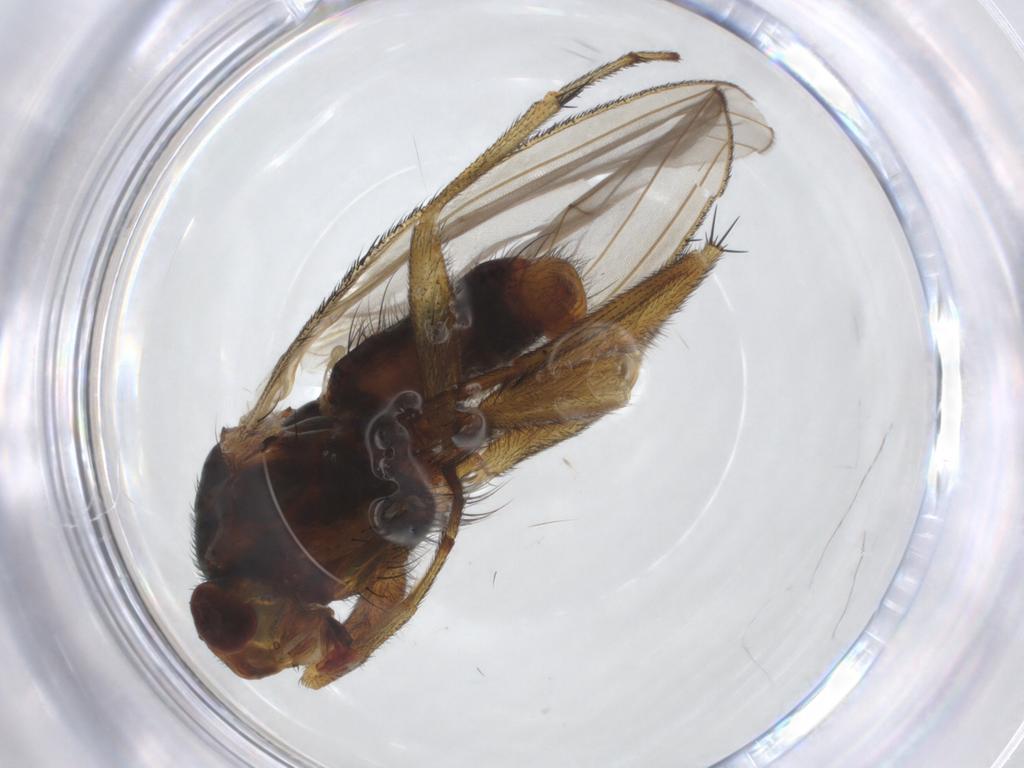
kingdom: Animalia
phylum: Arthropoda
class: Insecta
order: Diptera
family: Heleomyzidae
